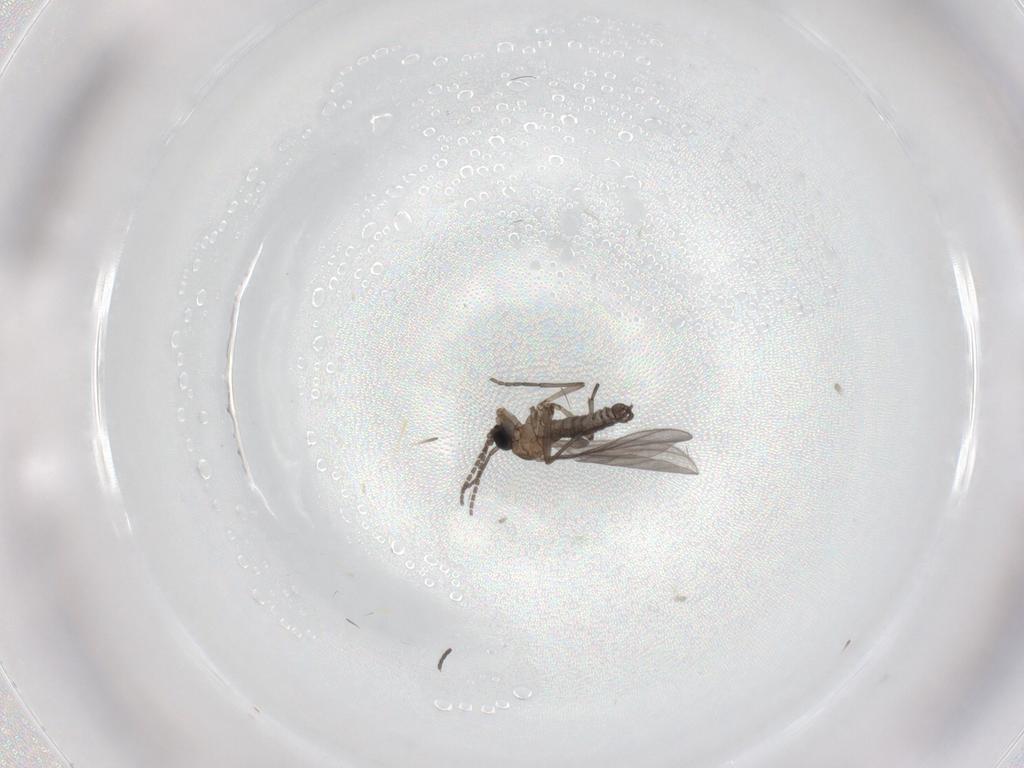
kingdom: Animalia
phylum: Arthropoda
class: Insecta
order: Diptera
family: Sciaridae
